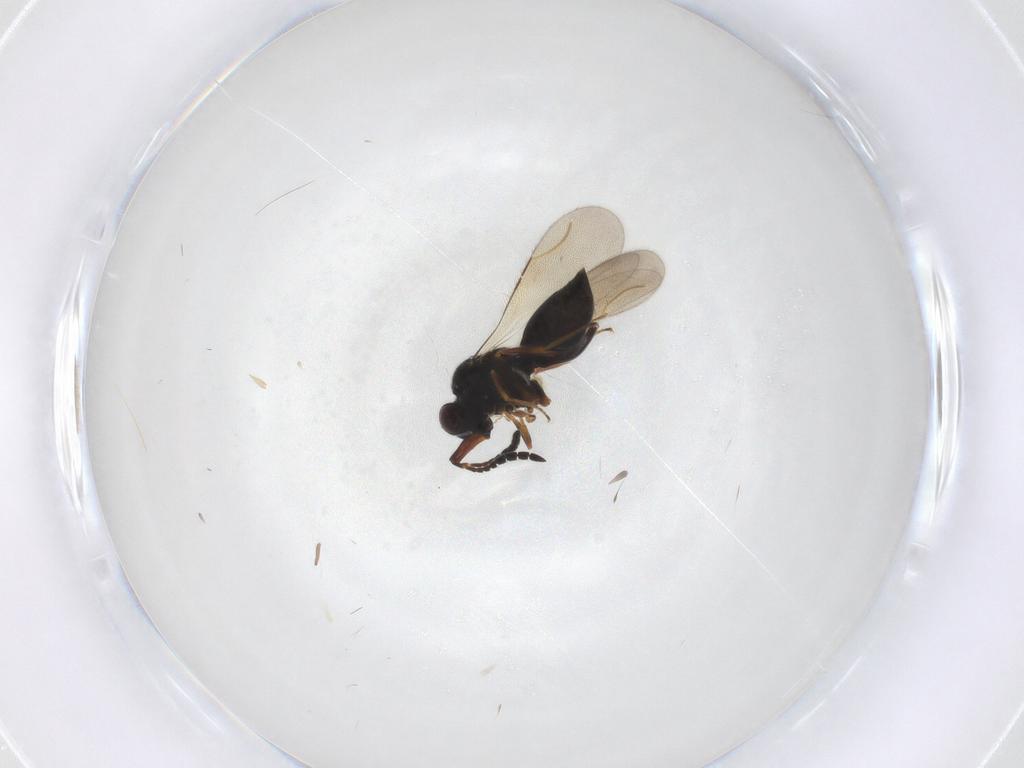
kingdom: Animalia
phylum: Arthropoda
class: Insecta
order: Hymenoptera
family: Ceraphronidae
